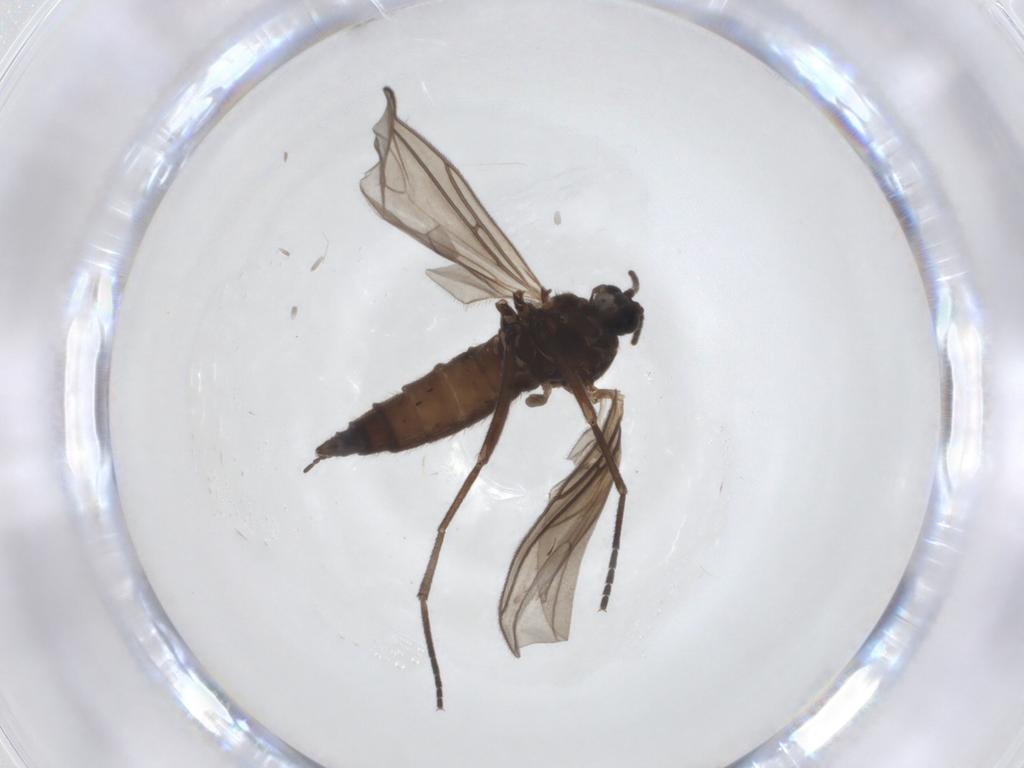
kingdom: Animalia
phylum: Arthropoda
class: Insecta
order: Diptera
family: Sciaridae
